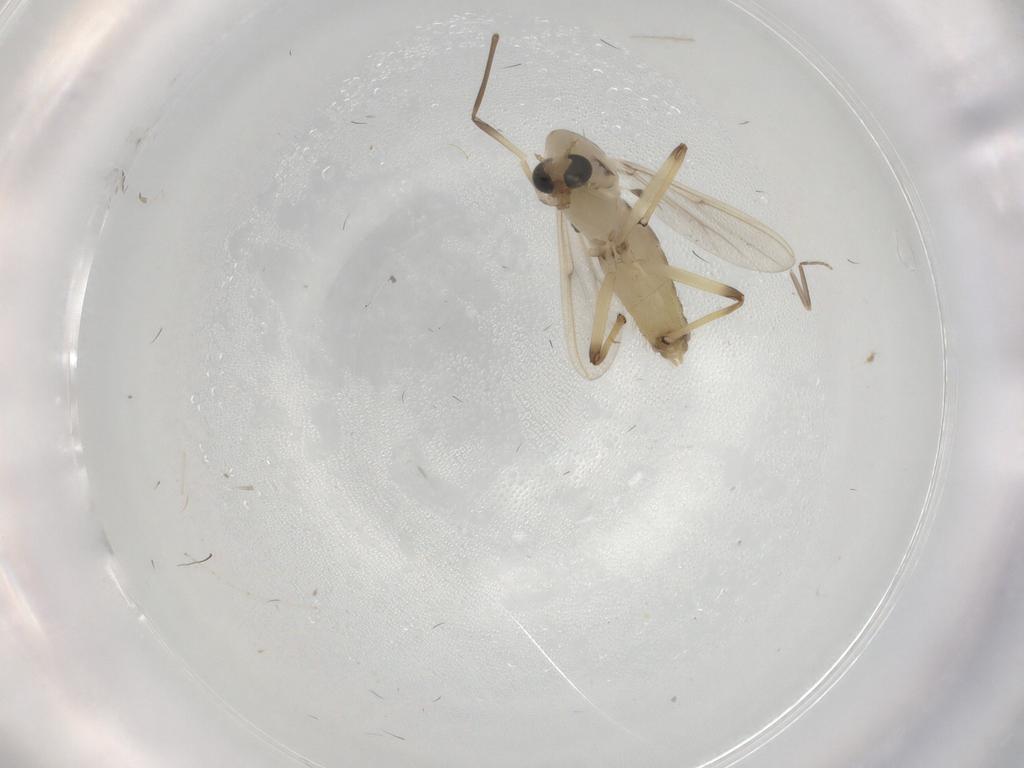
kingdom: Animalia
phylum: Arthropoda
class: Insecta
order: Diptera
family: Chironomidae
